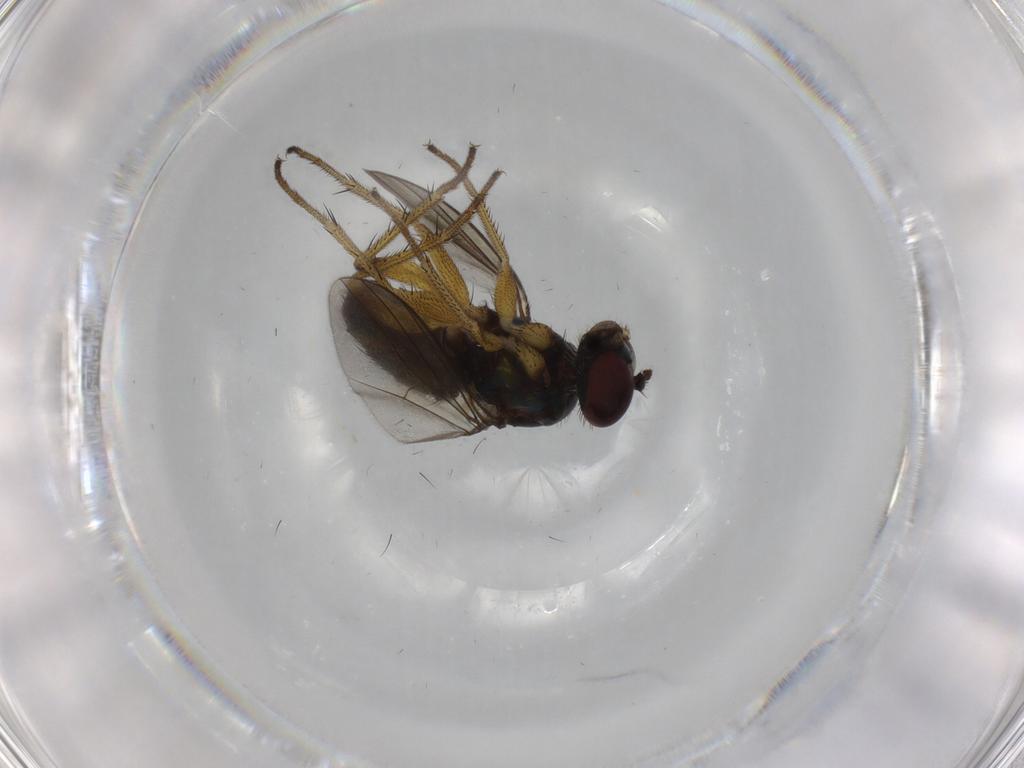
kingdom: Animalia
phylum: Arthropoda
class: Insecta
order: Diptera
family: Dolichopodidae
